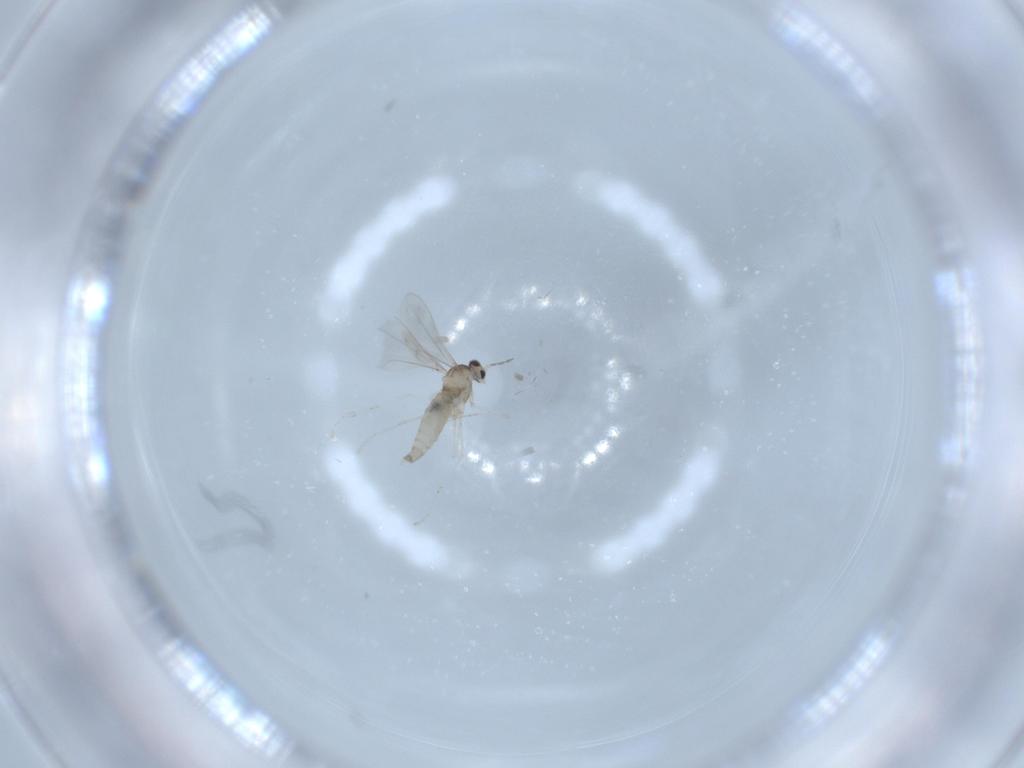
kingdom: Animalia
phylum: Arthropoda
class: Insecta
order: Diptera
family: Cecidomyiidae
